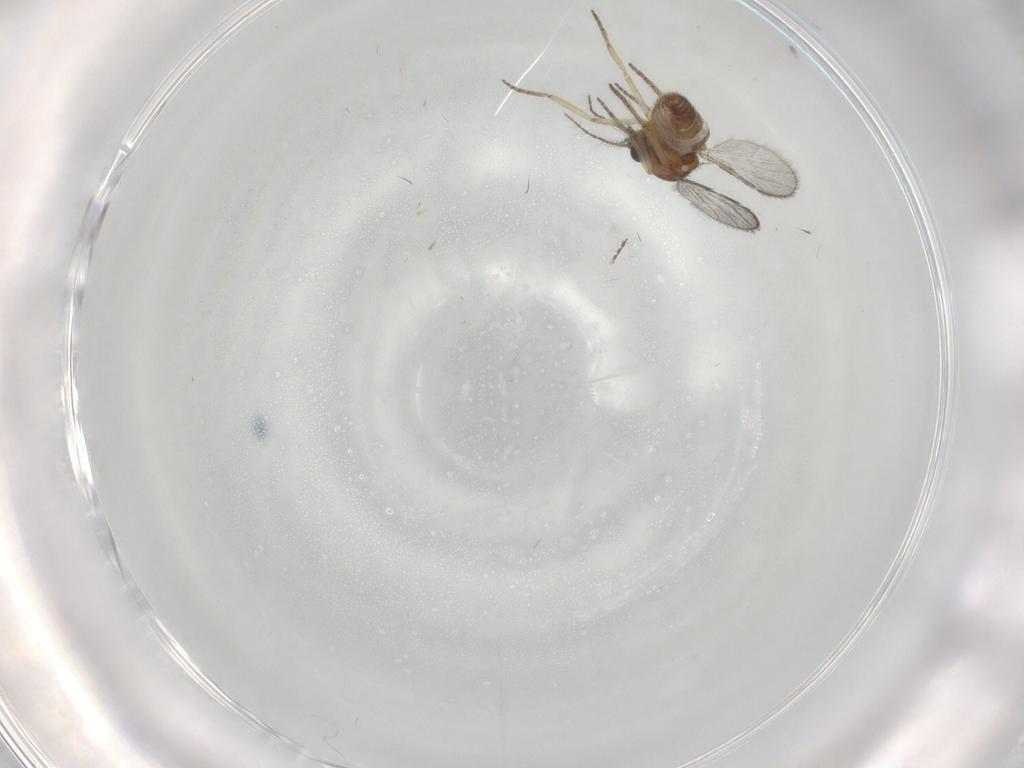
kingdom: Animalia
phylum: Arthropoda
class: Insecta
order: Diptera
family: Ceratopogonidae
